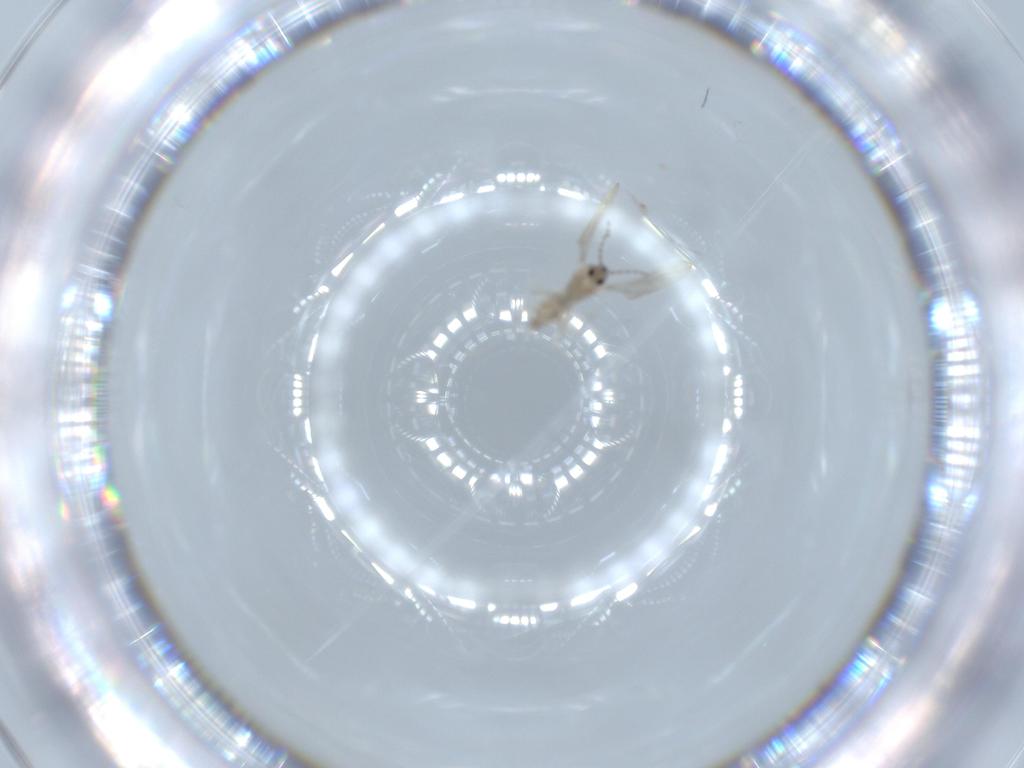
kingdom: Animalia
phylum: Arthropoda
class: Insecta
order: Diptera
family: Cecidomyiidae
